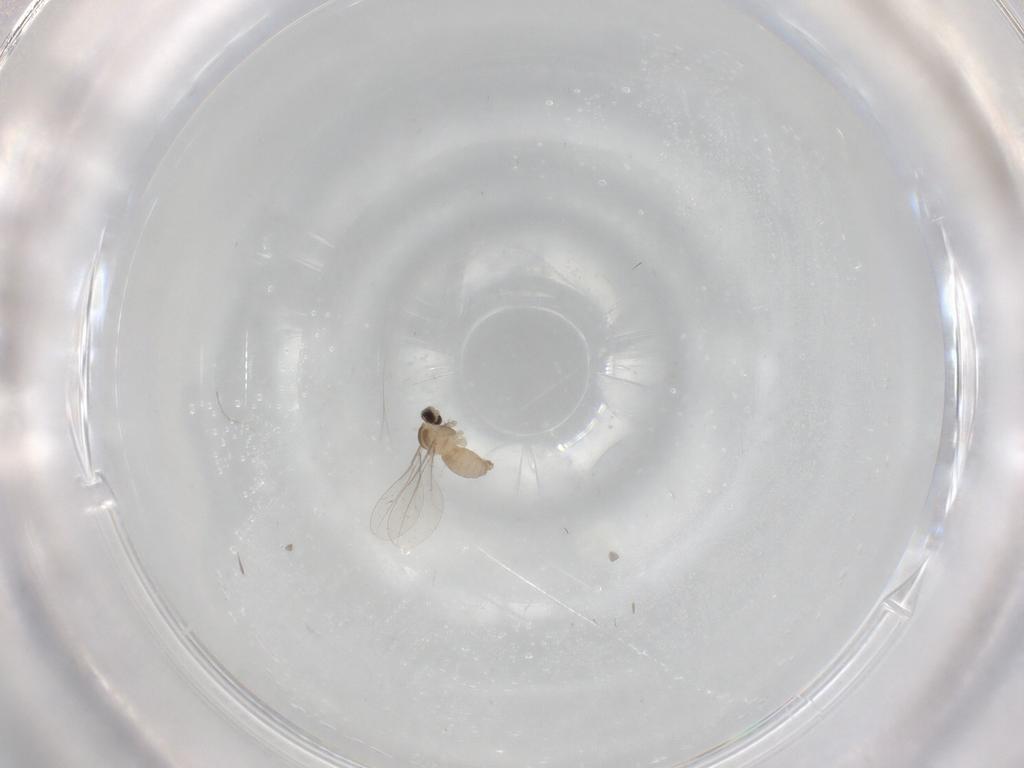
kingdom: Animalia
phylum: Arthropoda
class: Insecta
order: Diptera
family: Cecidomyiidae
